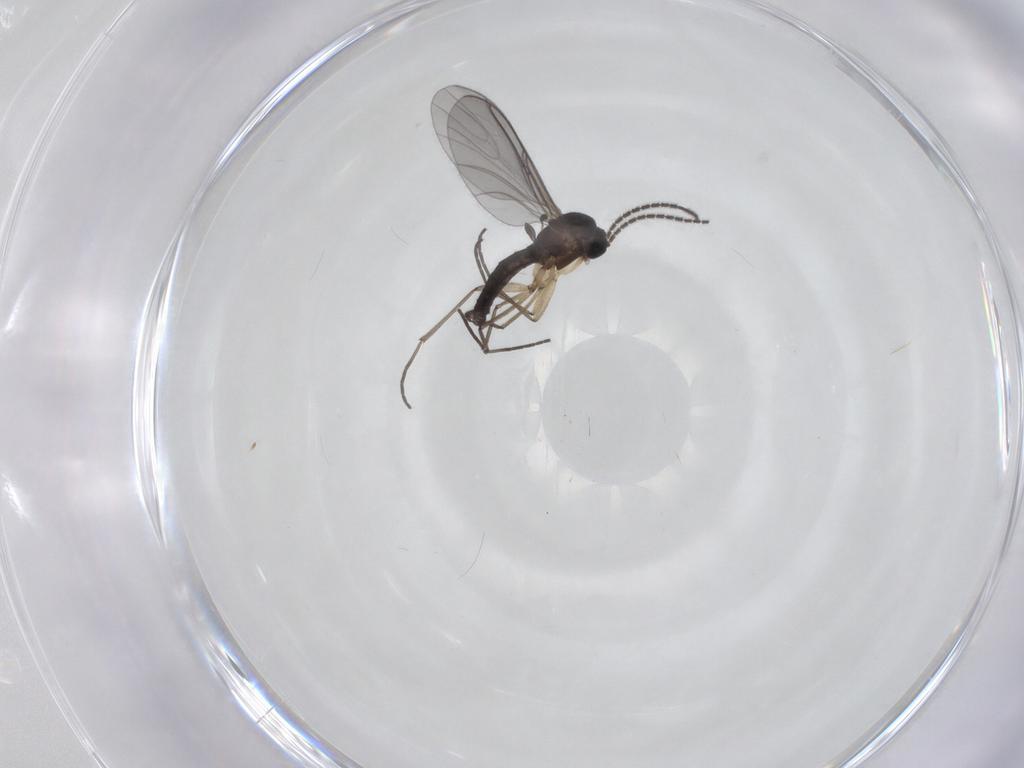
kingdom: Animalia
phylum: Arthropoda
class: Insecta
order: Diptera
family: Sciaridae
